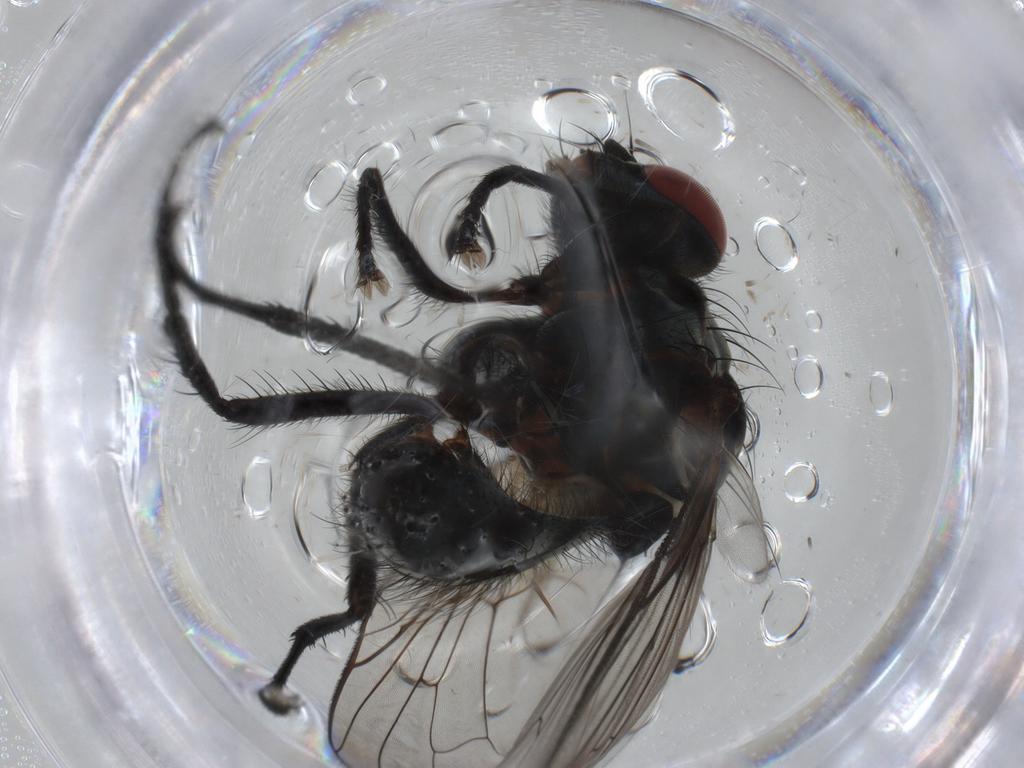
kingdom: Animalia
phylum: Arthropoda
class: Insecta
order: Diptera
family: Anthomyiidae
